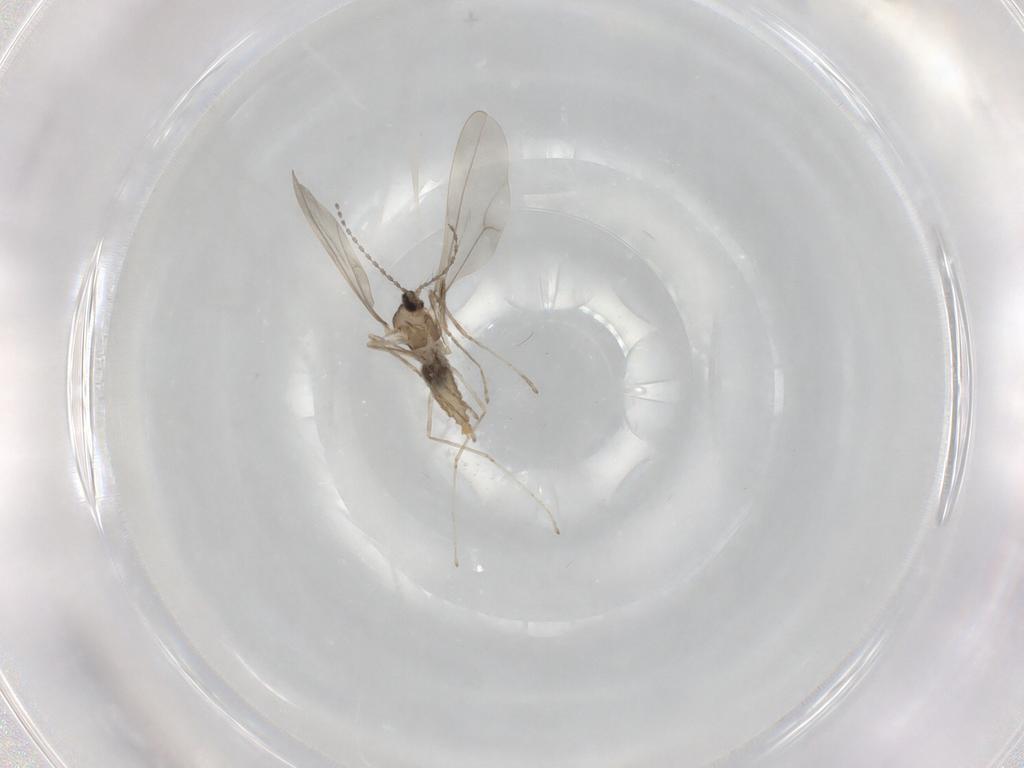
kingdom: Animalia
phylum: Arthropoda
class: Insecta
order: Diptera
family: Cecidomyiidae
